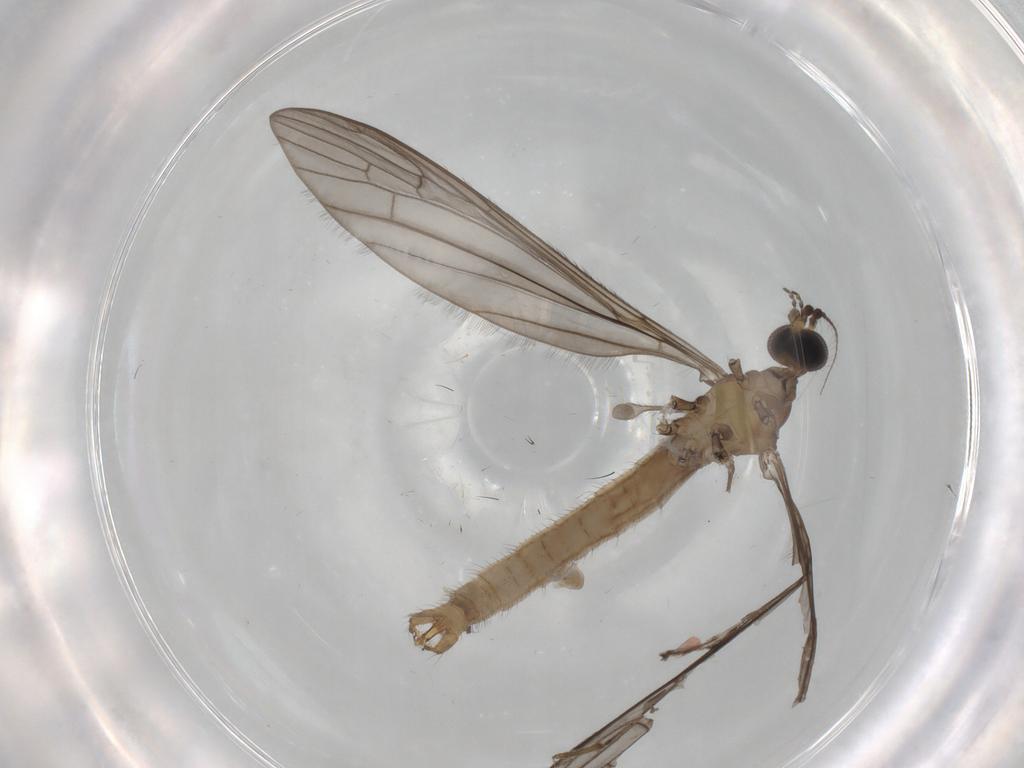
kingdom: Animalia
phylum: Arthropoda
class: Insecta
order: Diptera
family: Limoniidae
